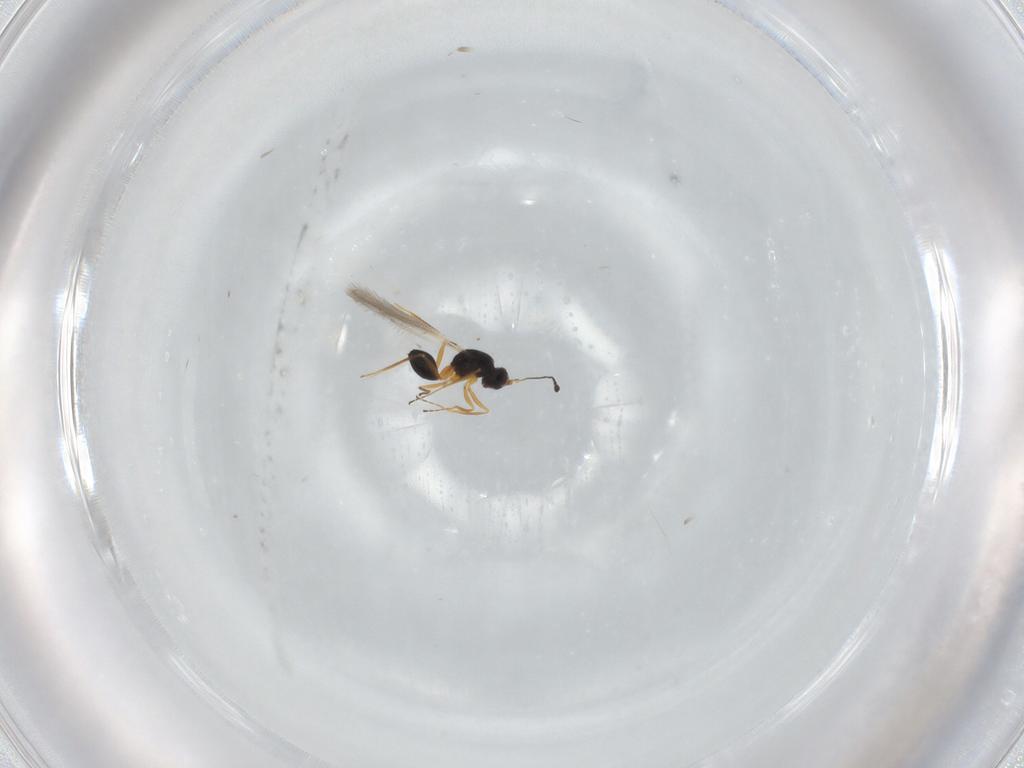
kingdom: Animalia
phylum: Arthropoda
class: Insecta
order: Hymenoptera
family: Mymaridae
